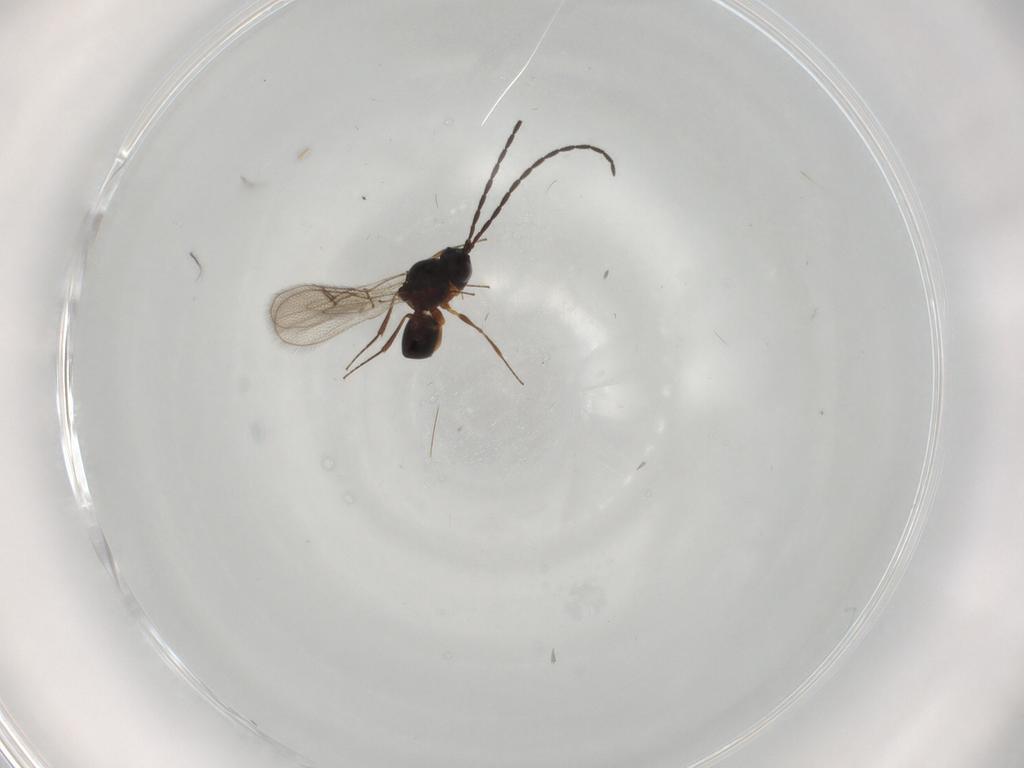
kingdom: Animalia
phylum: Arthropoda
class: Insecta
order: Hymenoptera
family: Figitidae
